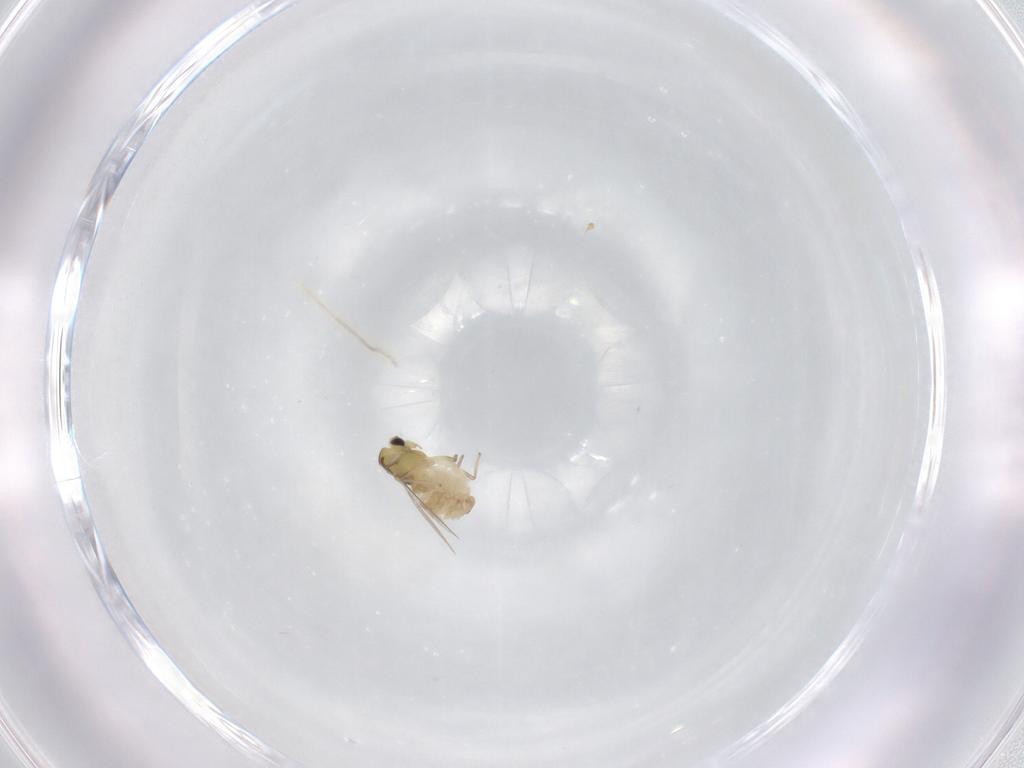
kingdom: Animalia
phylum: Arthropoda
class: Insecta
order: Diptera
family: Chironomidae
